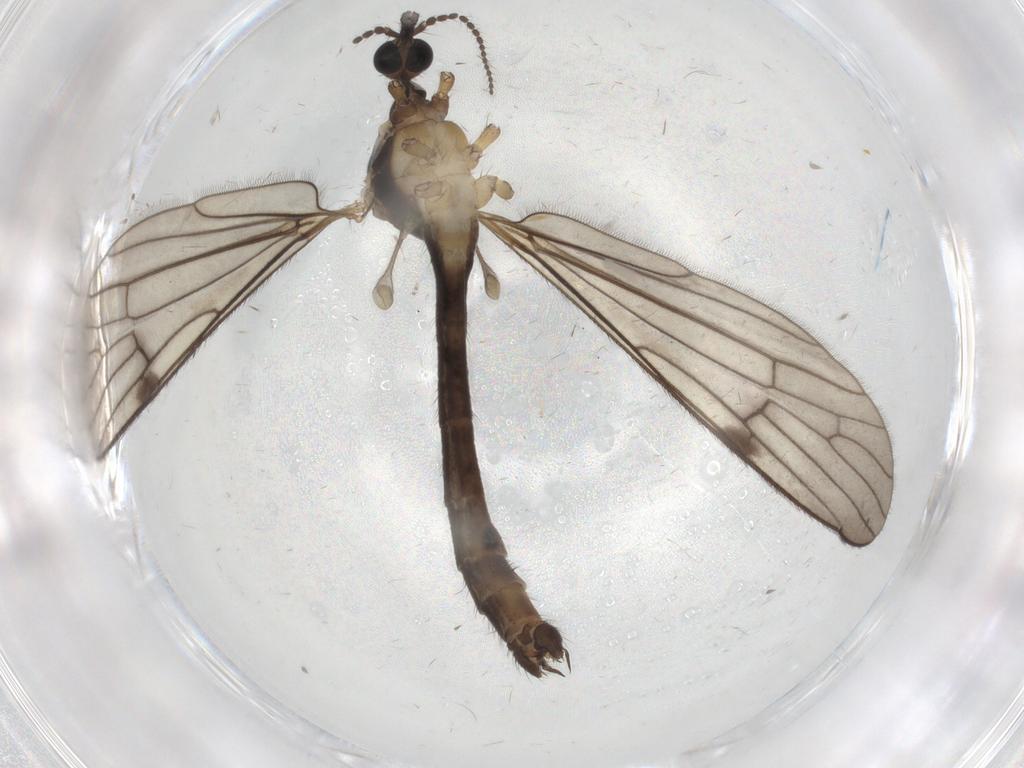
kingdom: Animalia
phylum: Arthropoda
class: Insecta
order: Diptera
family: Limoniidae
